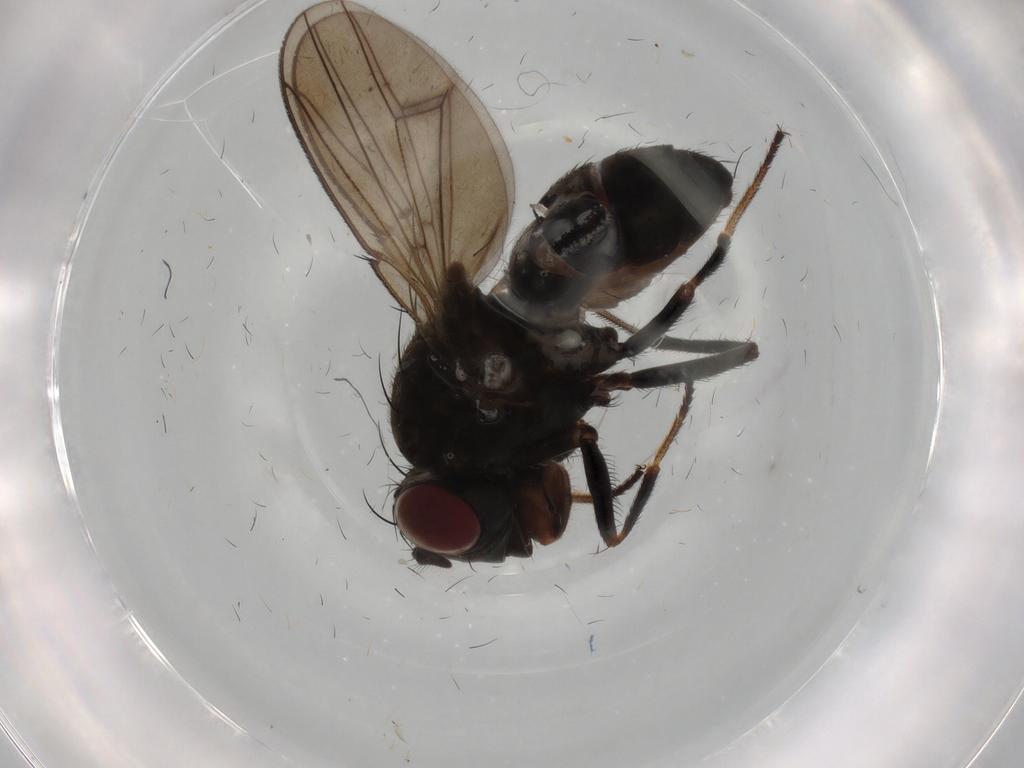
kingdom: Animalia
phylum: Arthropoda
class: Insecta
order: Diptera
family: Ephydridae
